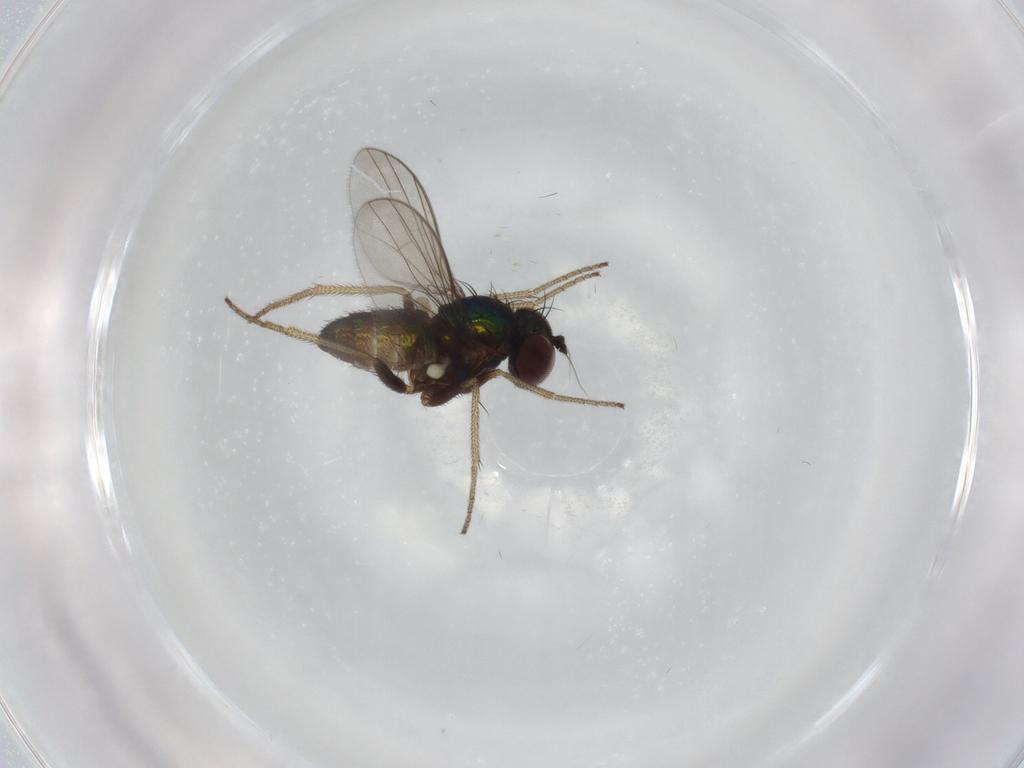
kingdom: Animalia
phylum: Arthropoda
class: Insecta
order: Diptera
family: Dolichopodidae
